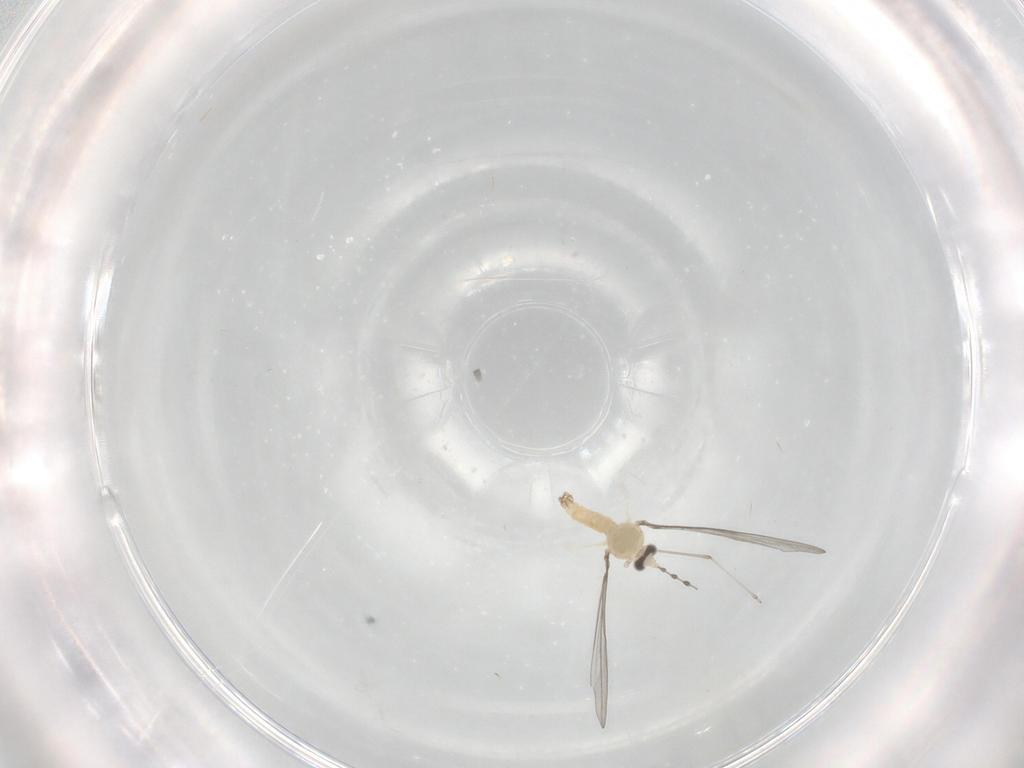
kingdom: Animalia
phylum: Arthropoda
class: Insecta
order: Diptera
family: Cecidomyiidae
